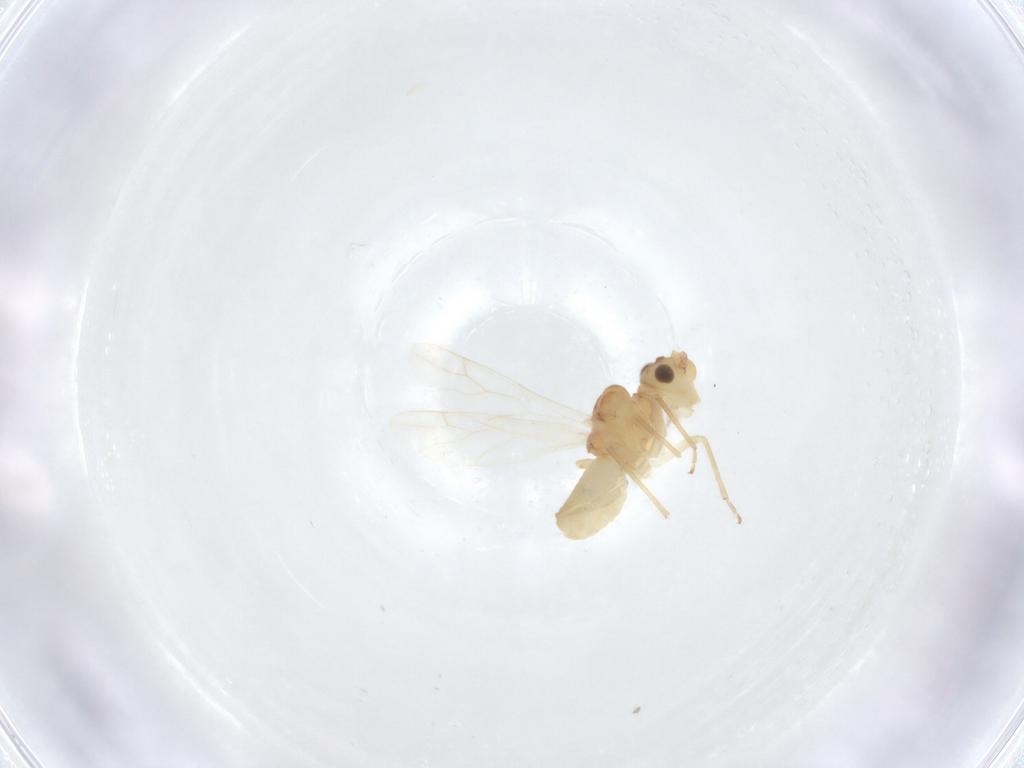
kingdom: Animalia
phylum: Arthropoda
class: Insecta
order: Psocodea
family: Caeciliusidae
